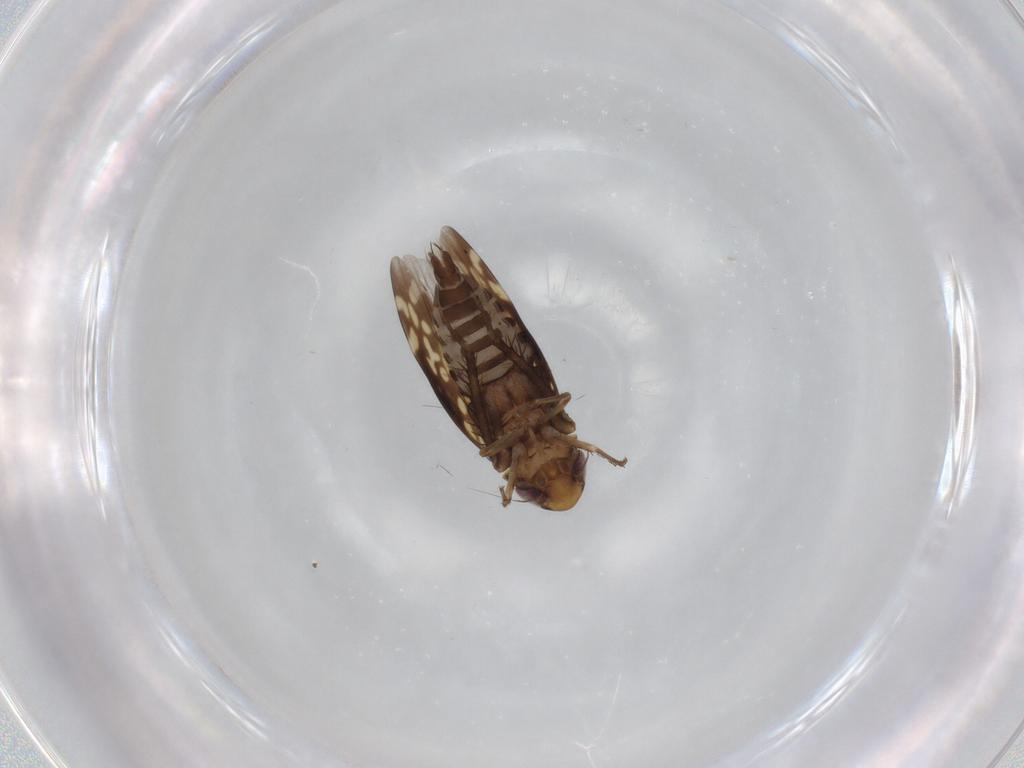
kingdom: Animalia
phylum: Arthropoda
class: Insecta
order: Hemiptera
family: Cicadellidae
